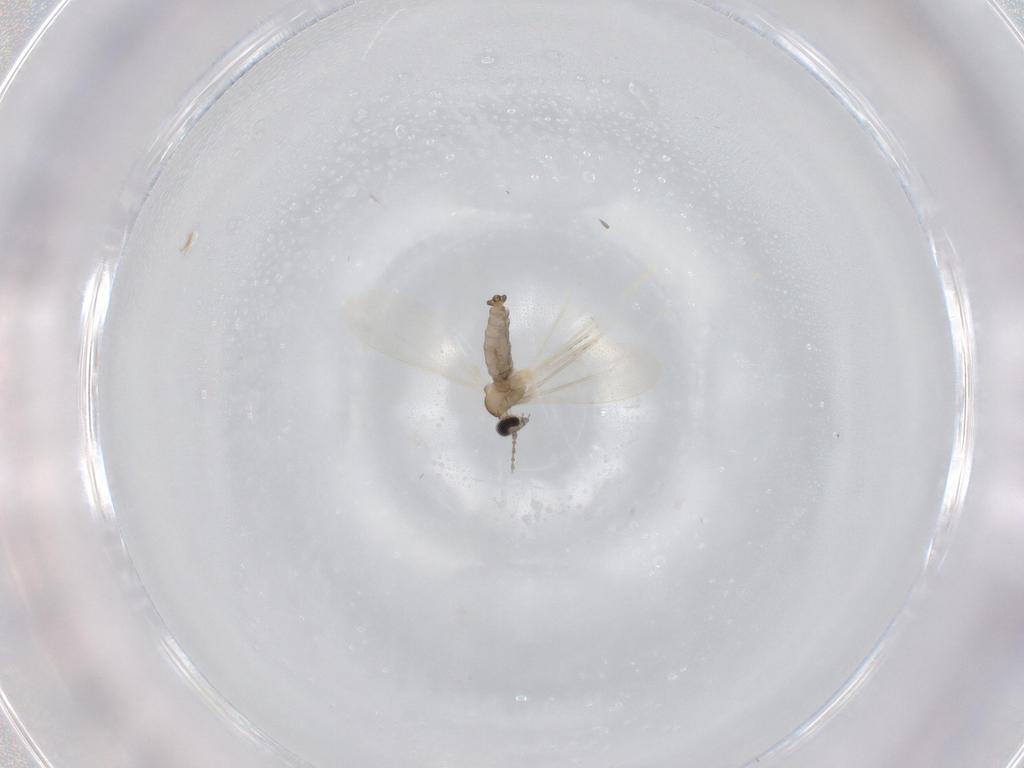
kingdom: Animalia
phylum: Arthropoda
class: Insecta
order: Diptera
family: Cecidomyiidae
